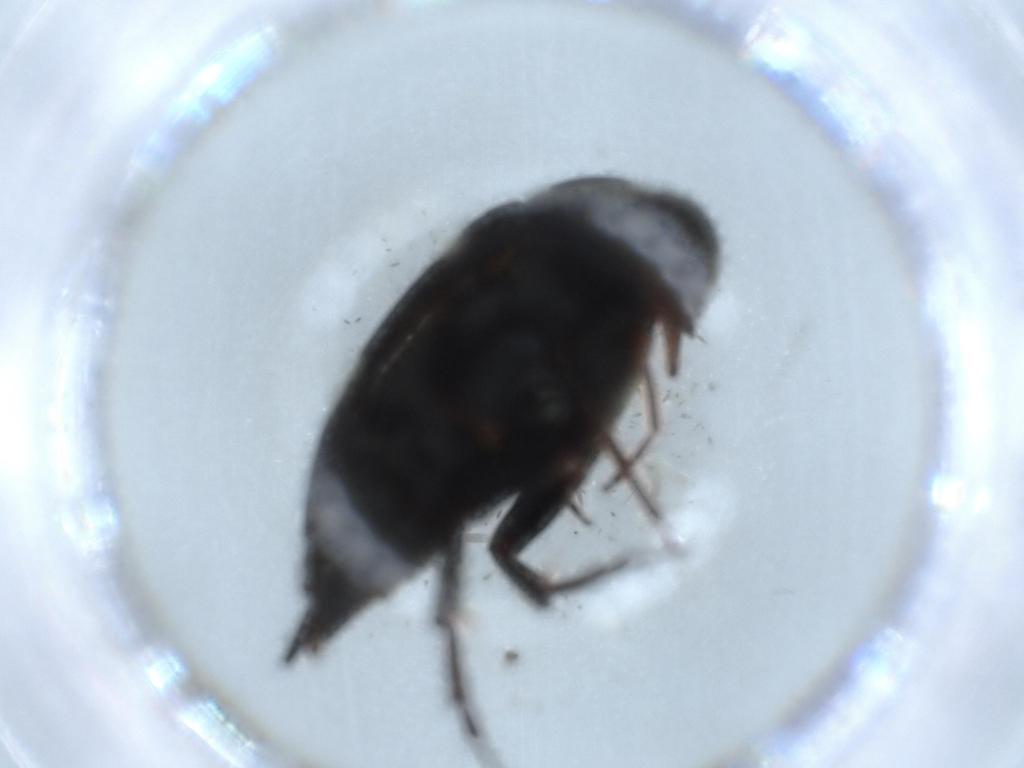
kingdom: Animalia
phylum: Arthropoda
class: Insecta
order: Coleoptera
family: Mordellidae
